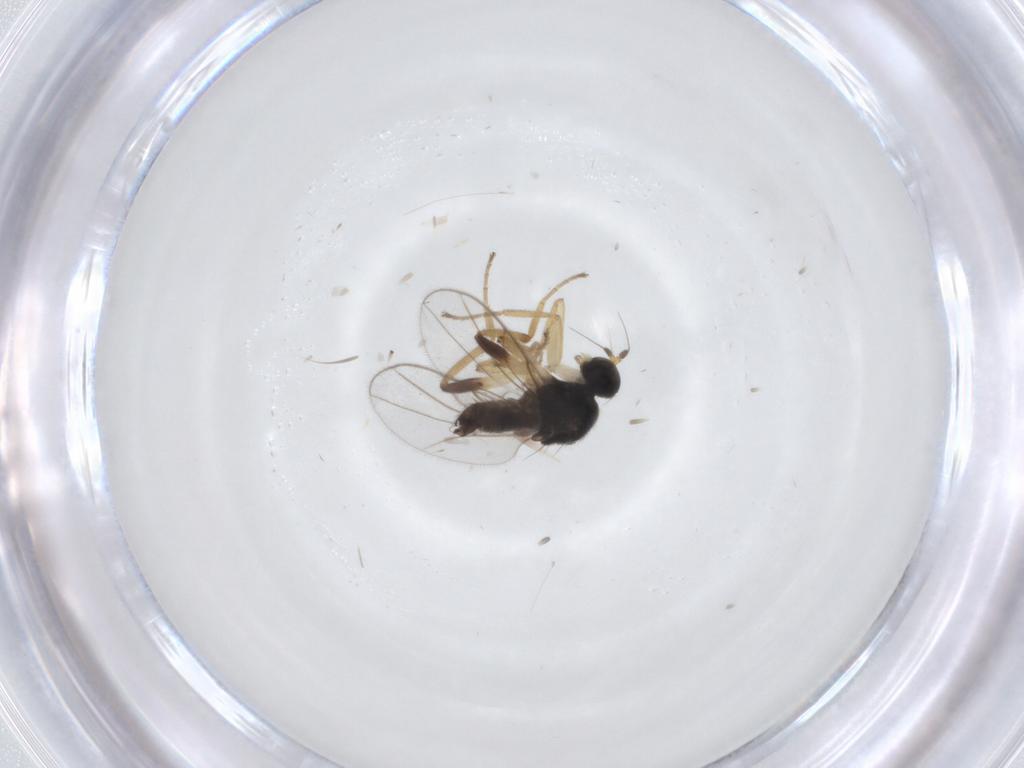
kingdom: Animalia
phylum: Arthropoda
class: Insecta
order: Diptera
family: Hybotidae
